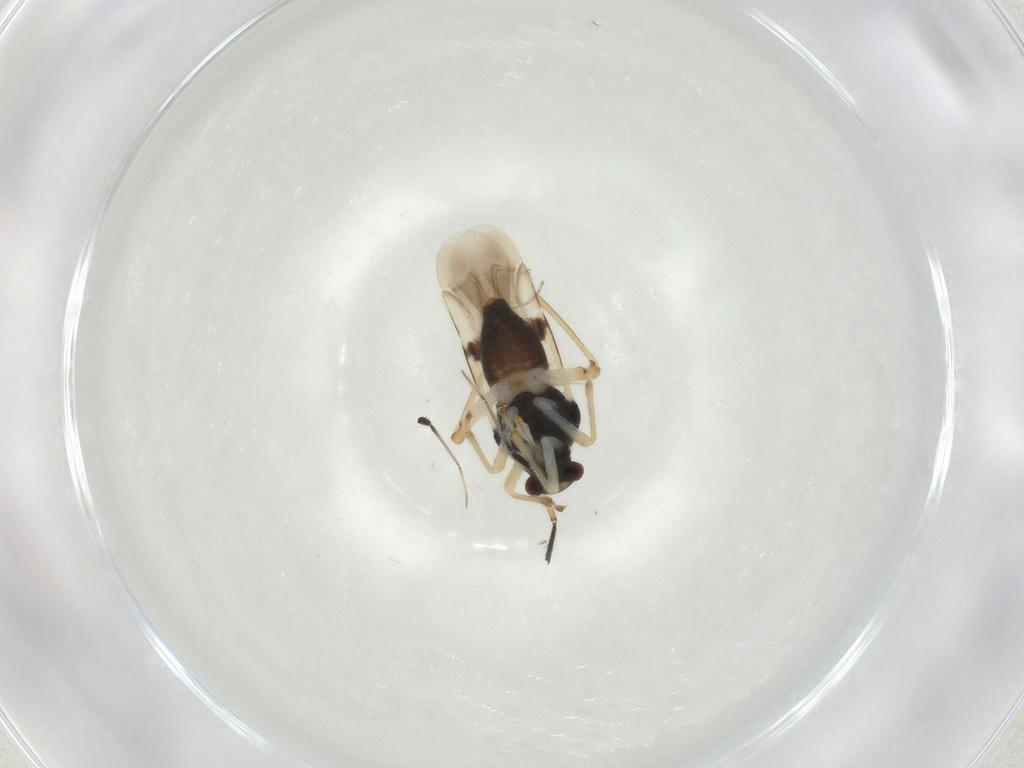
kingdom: Animalia
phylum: Arthropoda
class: Insecta
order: Hemiptera
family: Miridae
